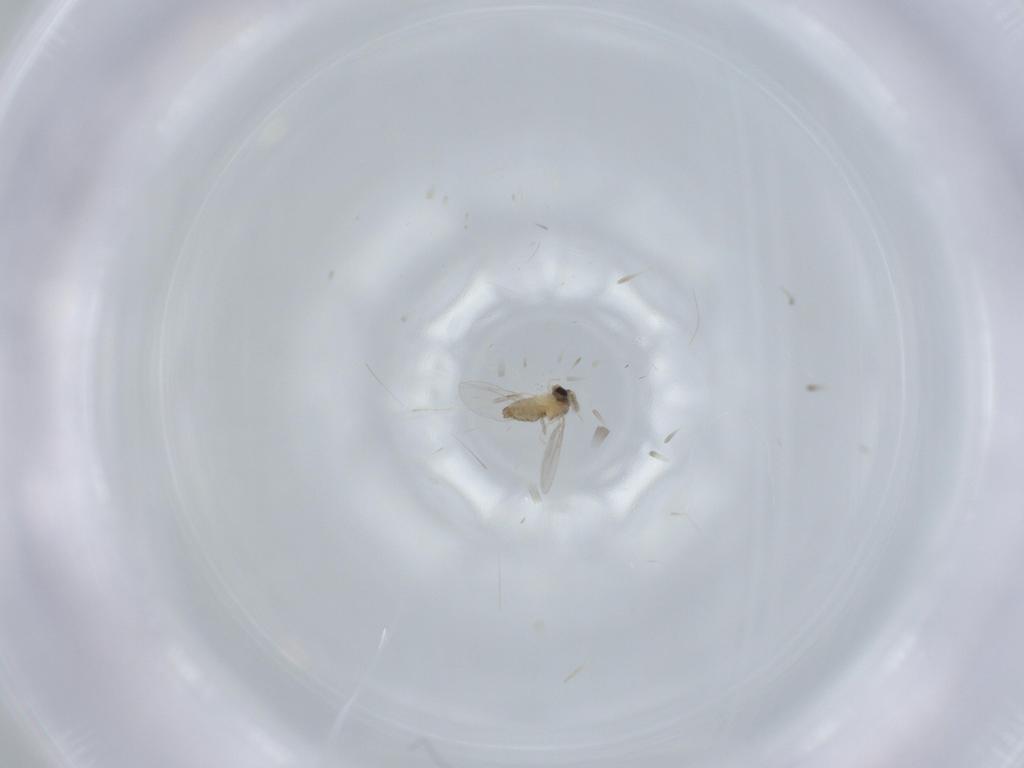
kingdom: Animalia
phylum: Arthropoda
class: Insecta
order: Diptera
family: Cecidomyiidae
